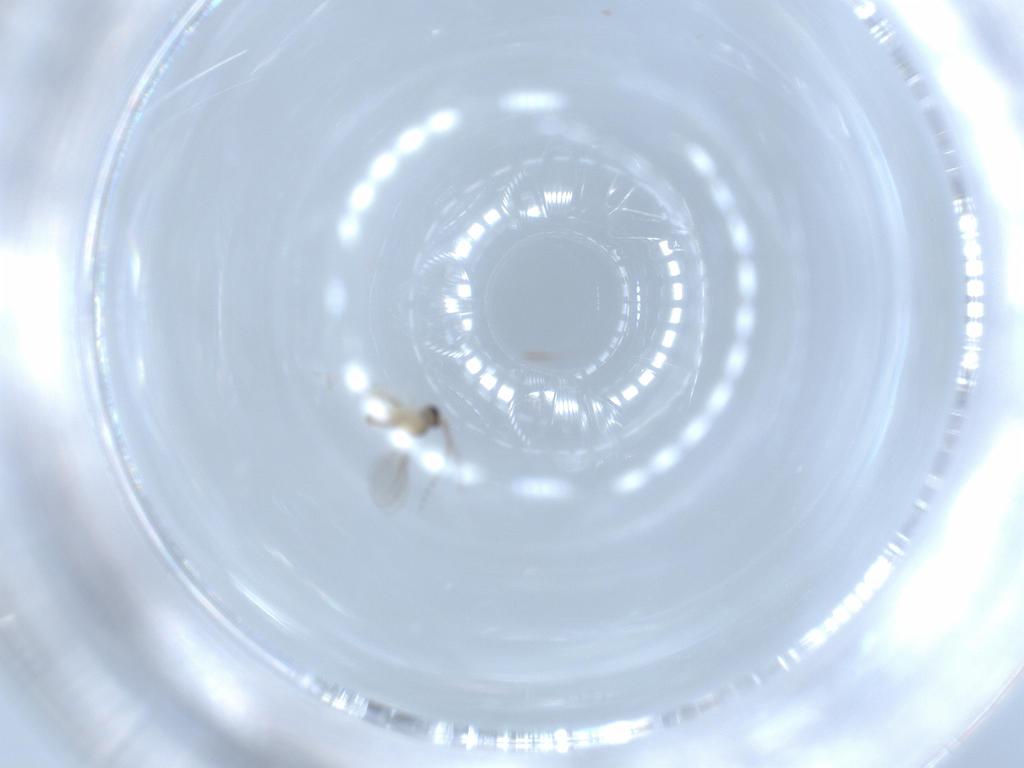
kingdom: Animalia
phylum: Arthropoda
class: Insecta
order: Diptera
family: Cecidomyiidae
